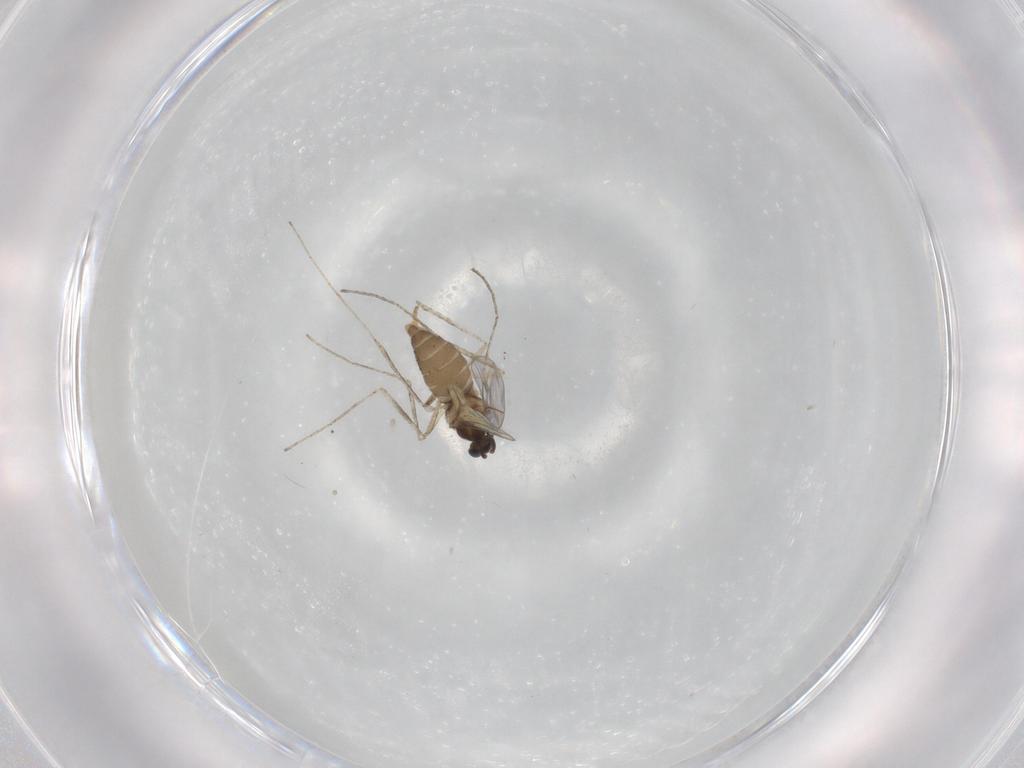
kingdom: Animalia
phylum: Arthropoda
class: Insecta
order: Diptera
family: Cecidomyiidae
